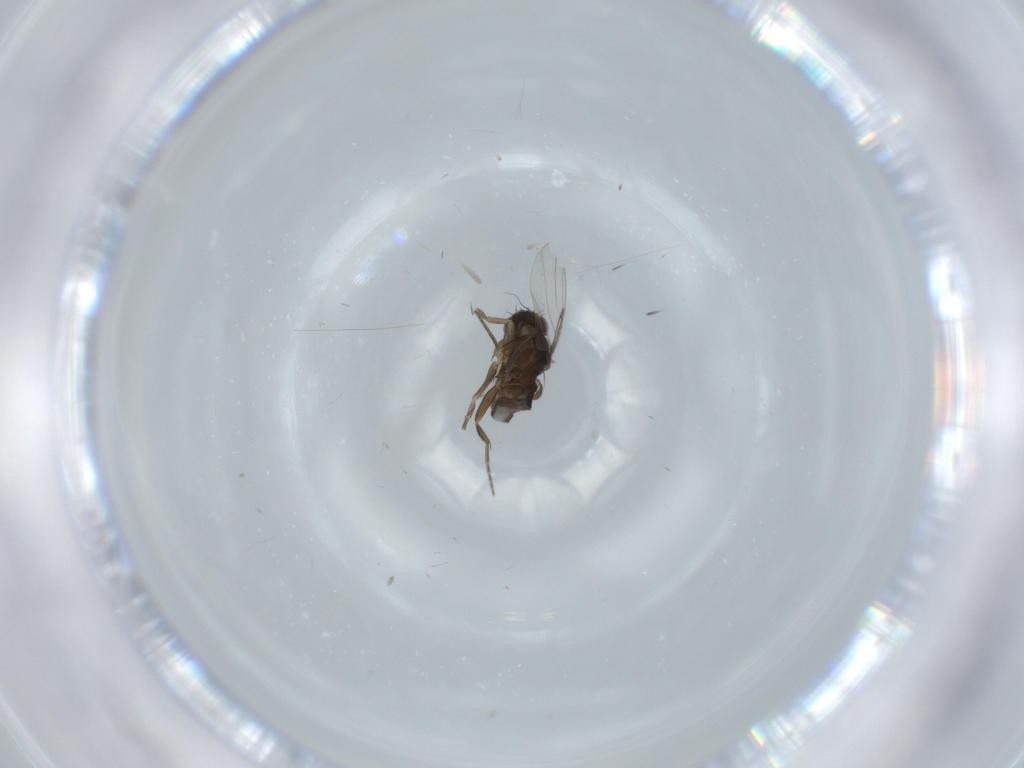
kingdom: Animalia
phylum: Arthropoda
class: Insecta
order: Diptera
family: Phoridae
